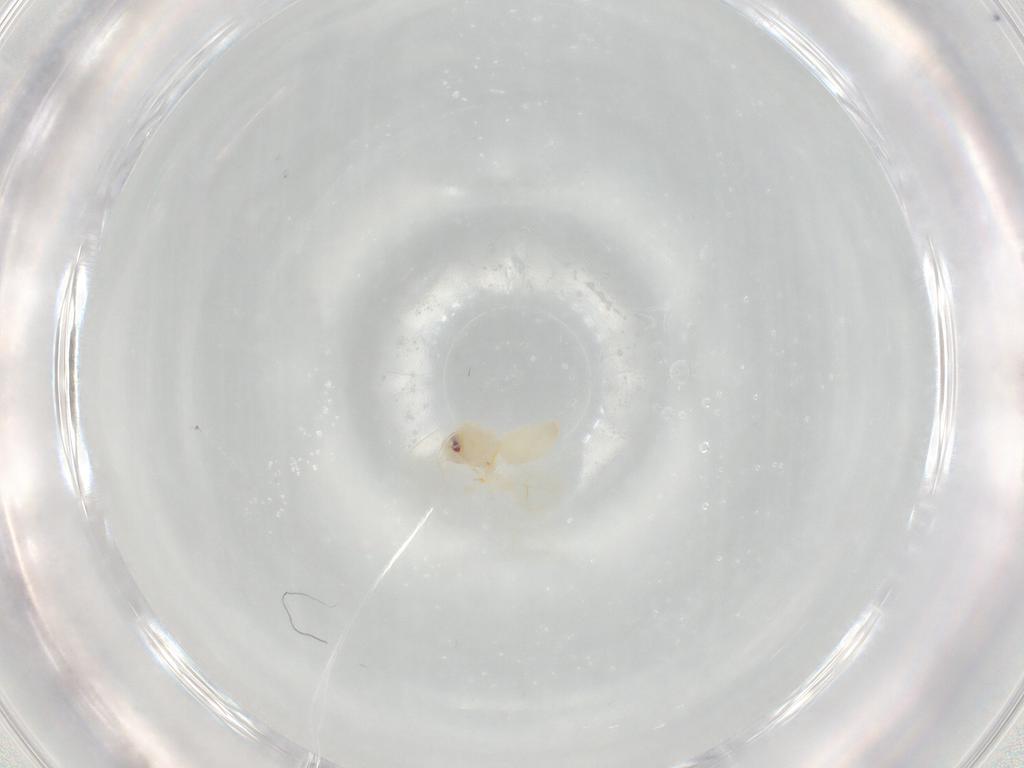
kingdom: Animalia
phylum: Arthropoda
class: Insecta
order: Hemiptera
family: Aleyrodidae
